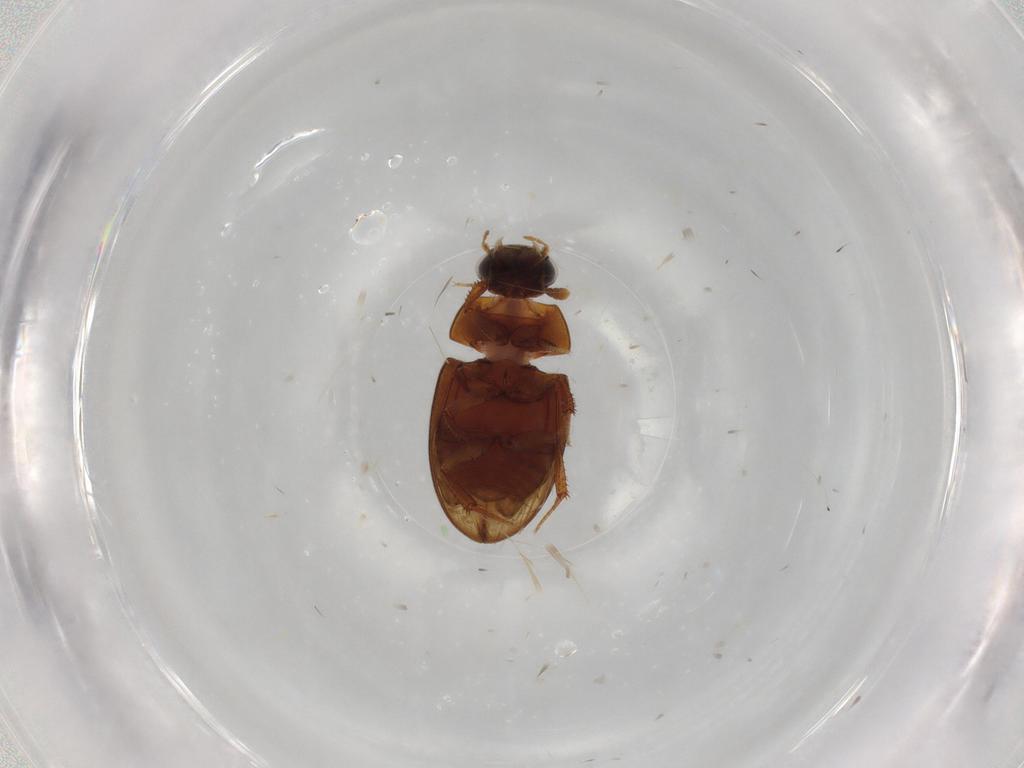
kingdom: Animalia
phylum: Arthropoda
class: Insecta
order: Coleoptera
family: Hydrophilidae
